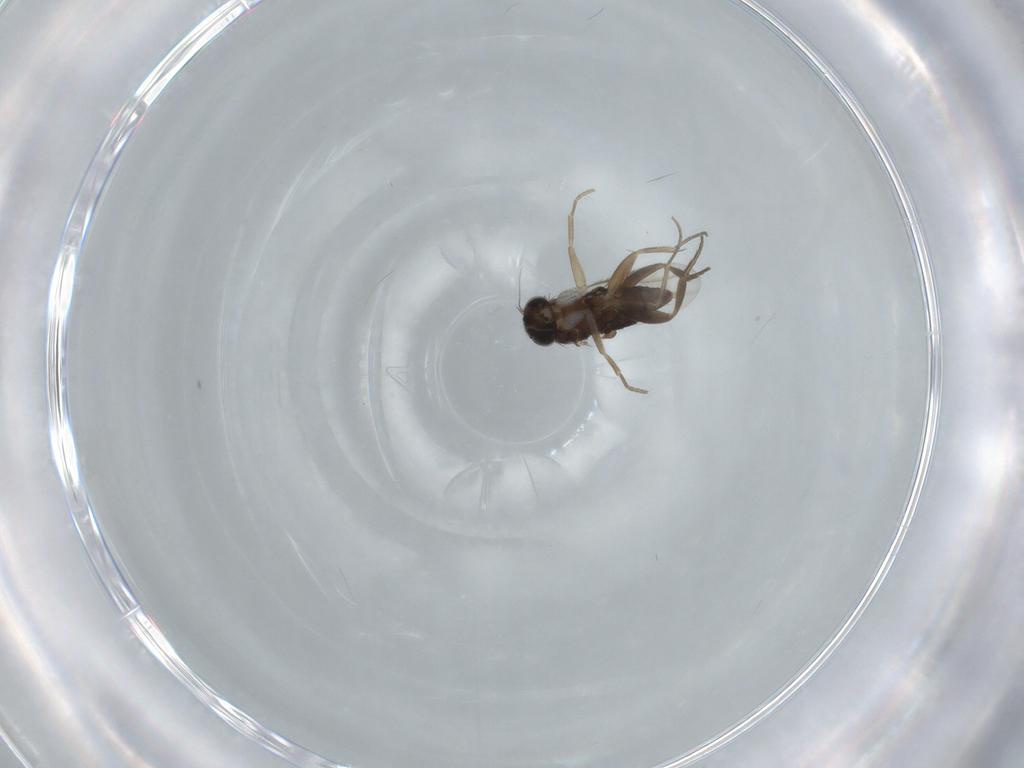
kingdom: Animalia
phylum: Arthropoda
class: Insecta
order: Diptera
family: Phoridae
